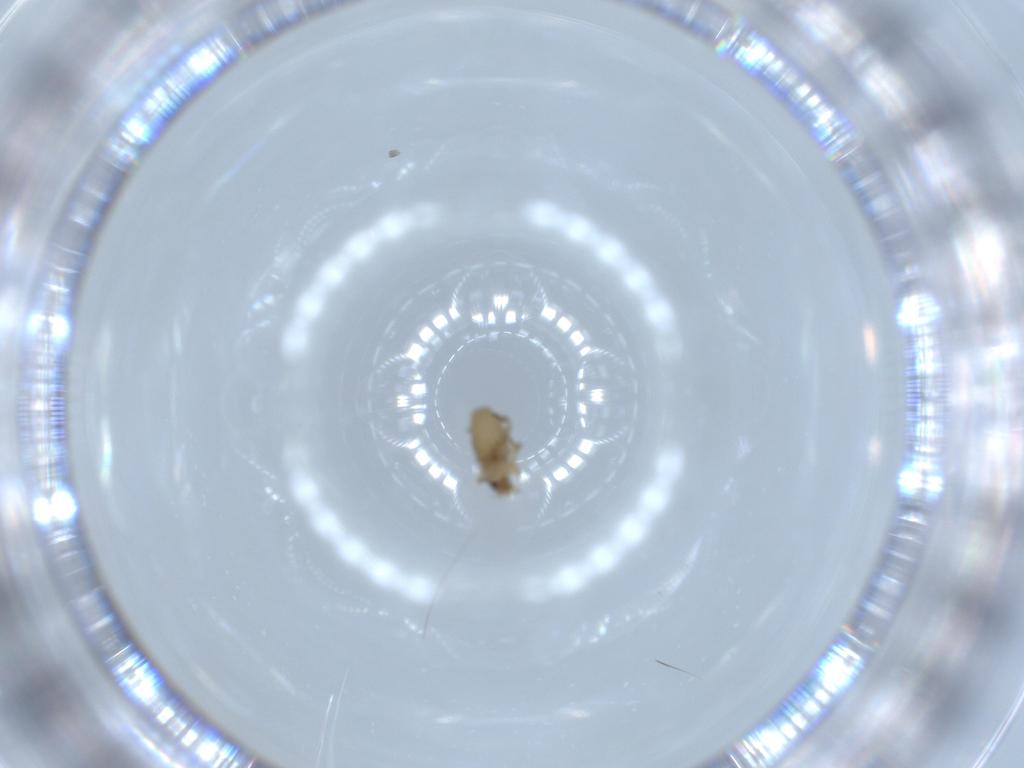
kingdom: Animalia
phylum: Arthropoda
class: Insecta
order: Diptera
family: Phoridae
